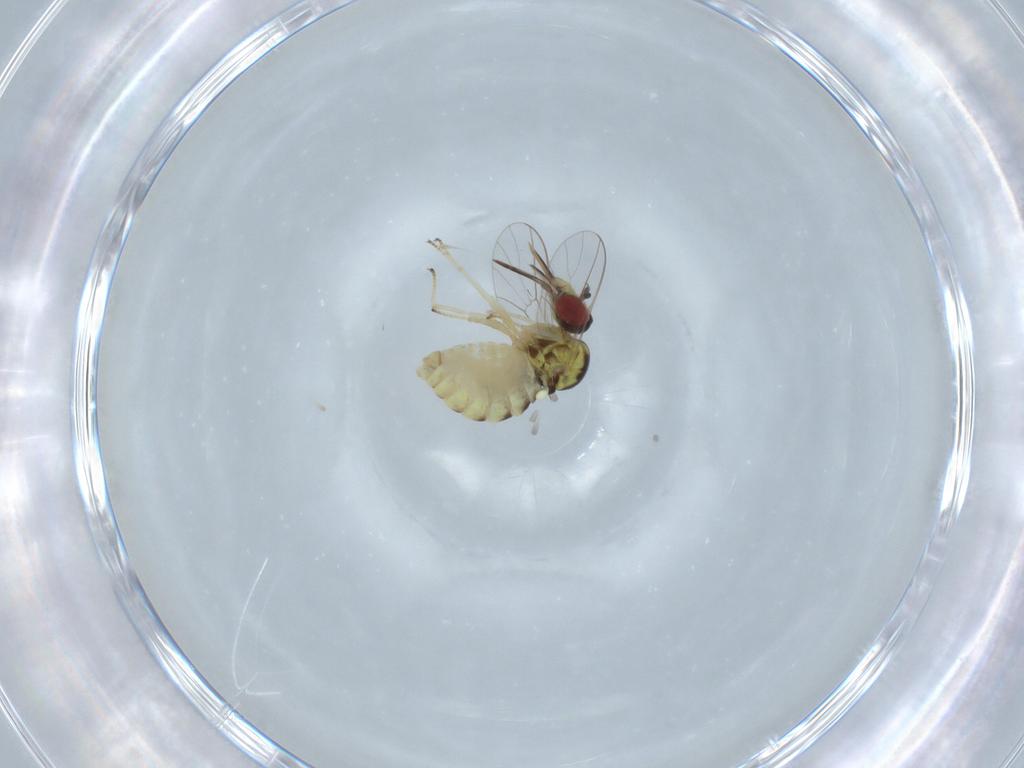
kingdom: Animalia
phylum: Arthropoda
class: Insecta
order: Diptera
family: Bombyliidae
